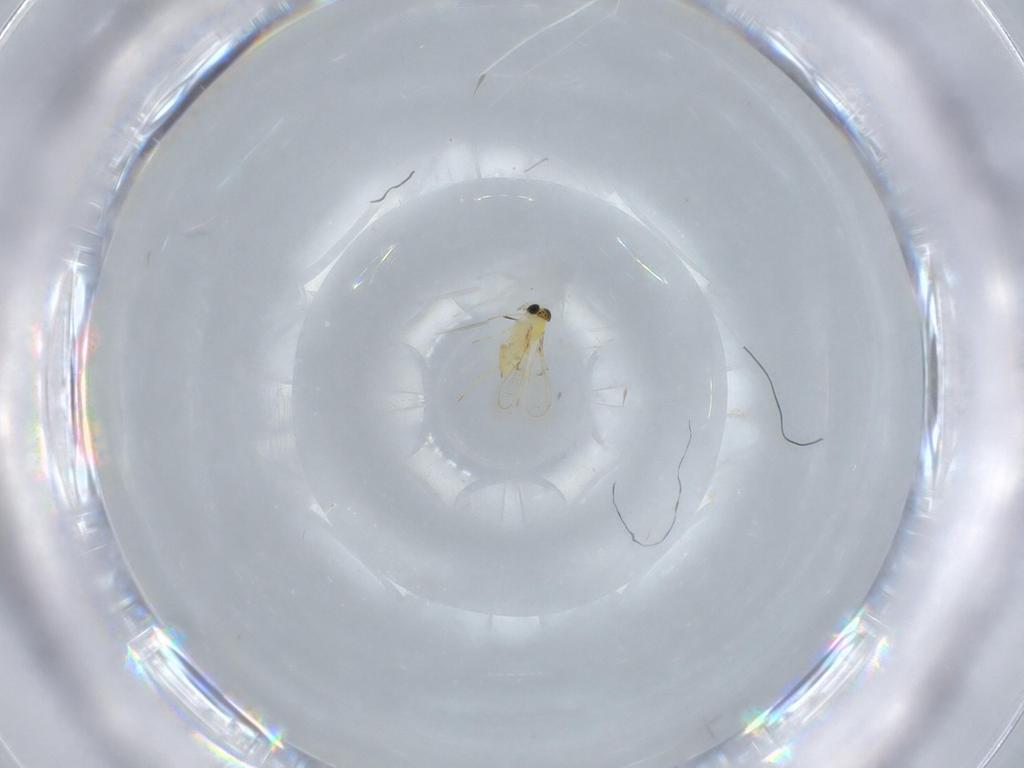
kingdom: Animalia
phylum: Arthropoda
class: Insecta
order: Hymenoptera
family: Trichogrammatidae
